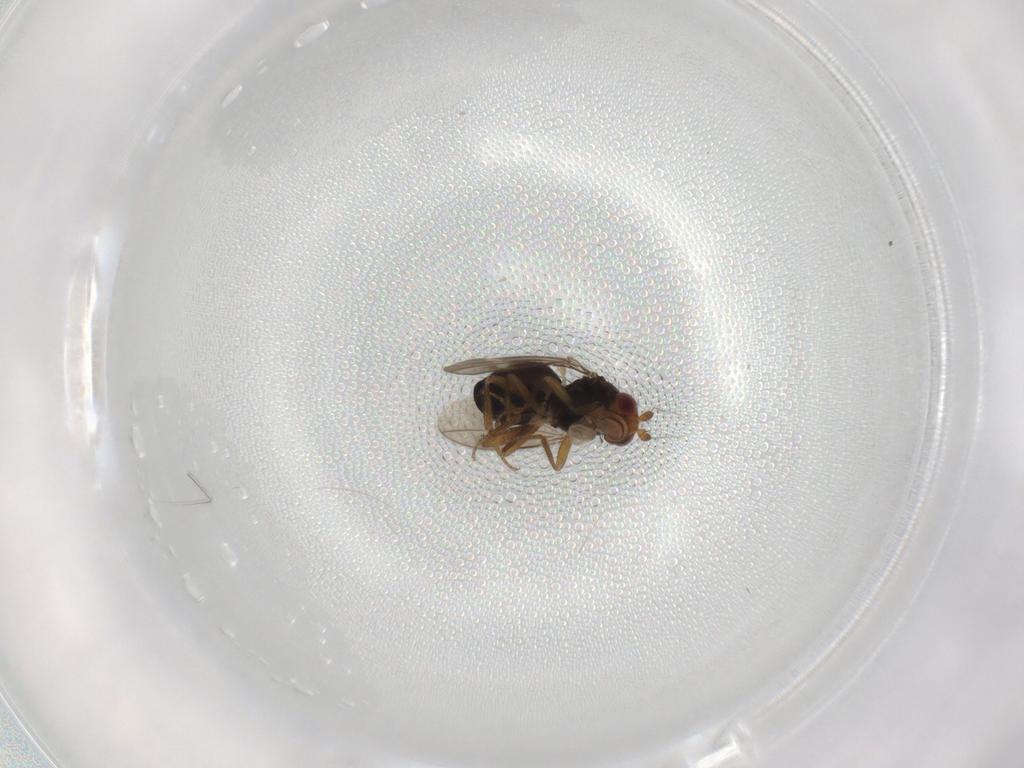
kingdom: Animalia
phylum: Arthropoda
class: Insecta
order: Diptera
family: Sphaeroceridae
